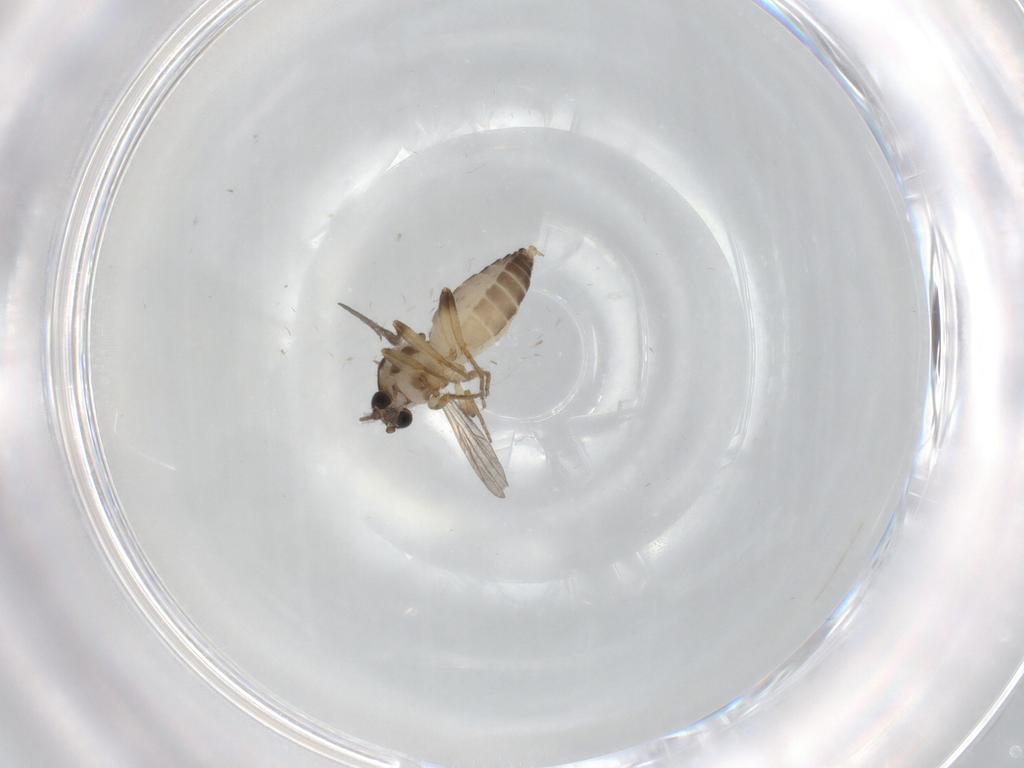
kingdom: Animalia
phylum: Arthropoda
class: Insecta
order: Diptera
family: Ceratopogonidae
